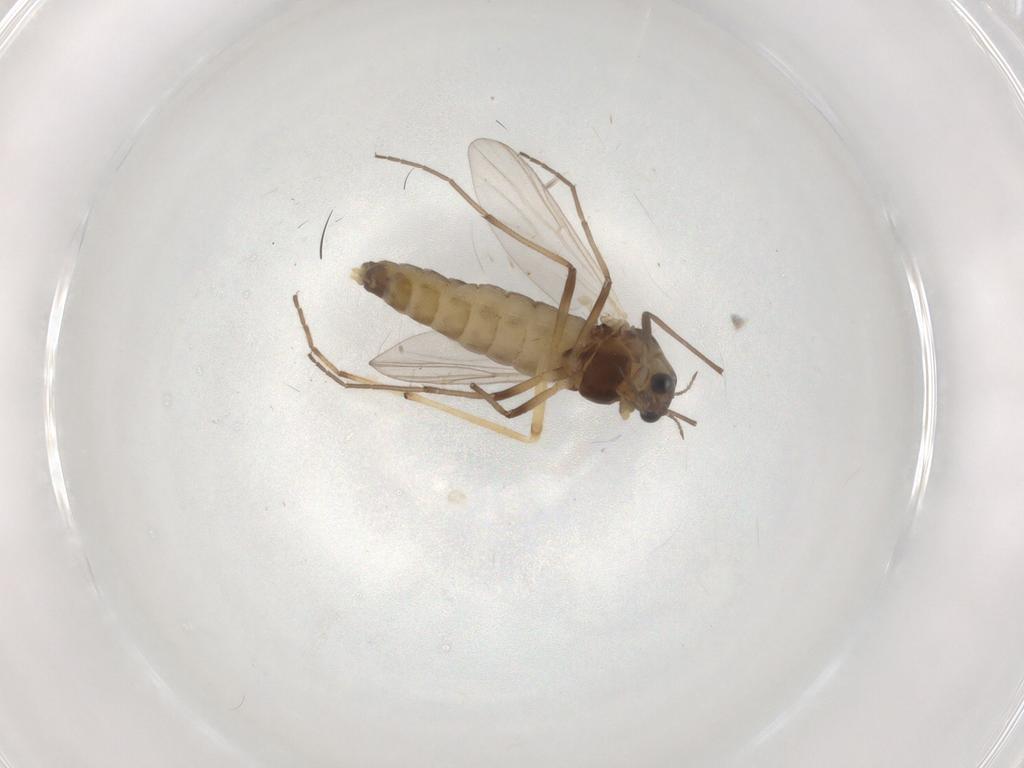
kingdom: Animalia
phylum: Arthropoda
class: Insecta
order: Diptera
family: Chironomidae
